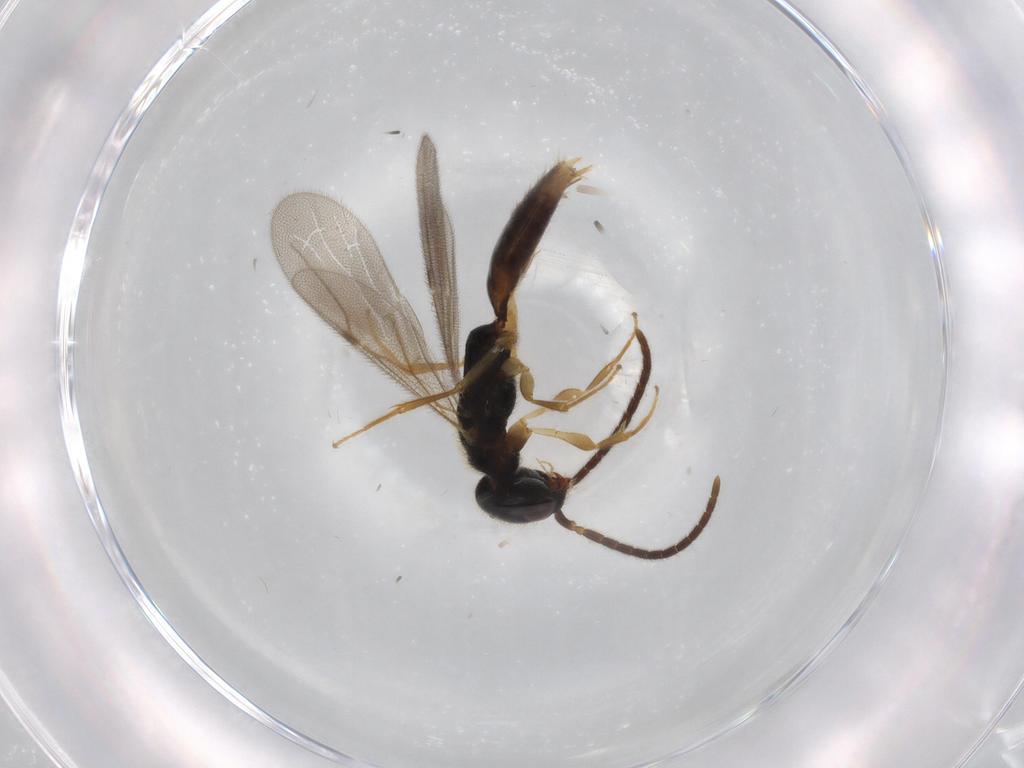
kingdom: Animalia
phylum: Arthropoda
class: Insecta
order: Hymenoptera
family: Bethylidae
